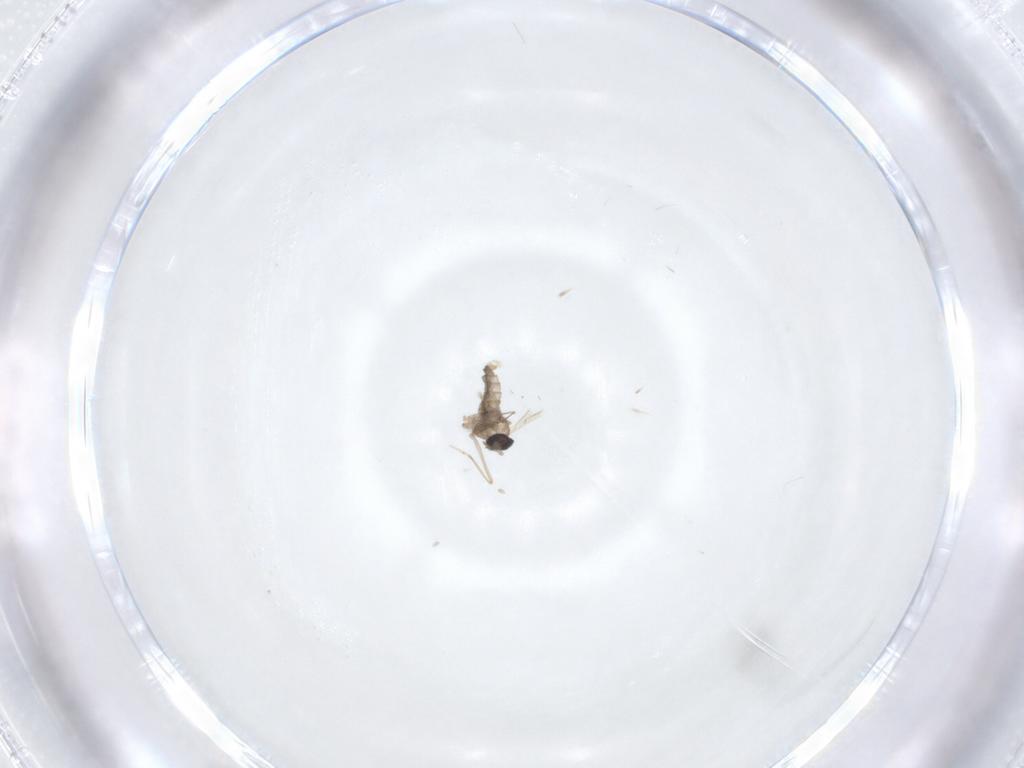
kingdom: Animalia
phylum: Arthropoda
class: Insecta
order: Diptera
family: Cecidomyiidae
